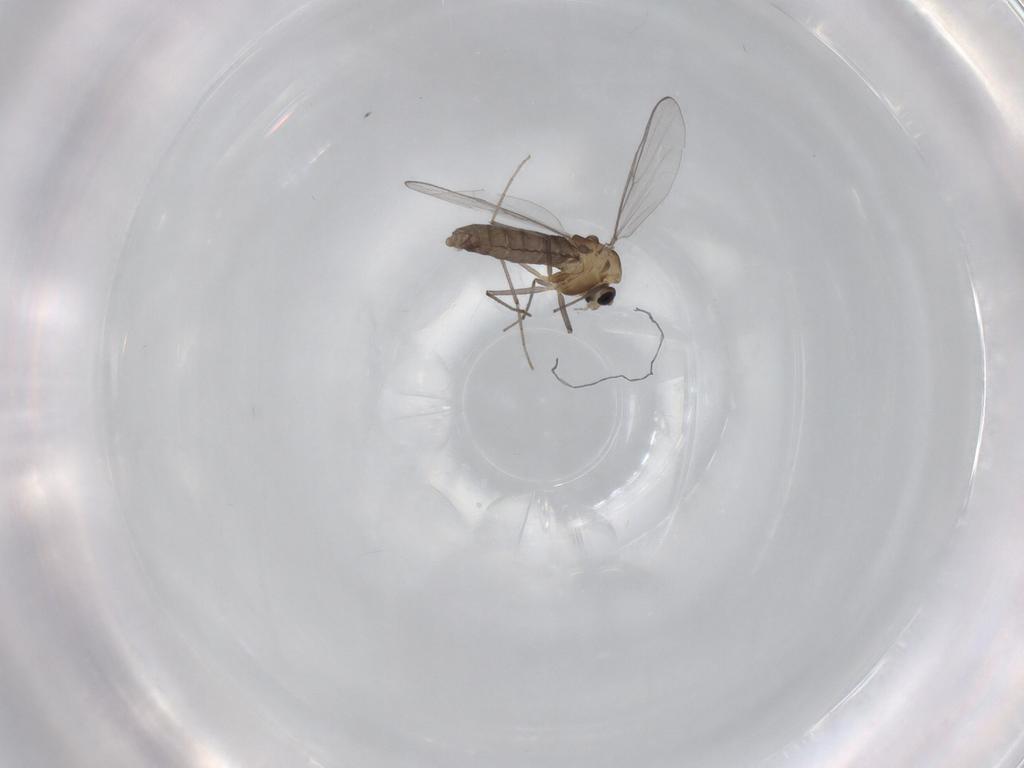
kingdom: Animalia
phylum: Arthropoda
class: Insecta
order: Diptera
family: Chironomidae
